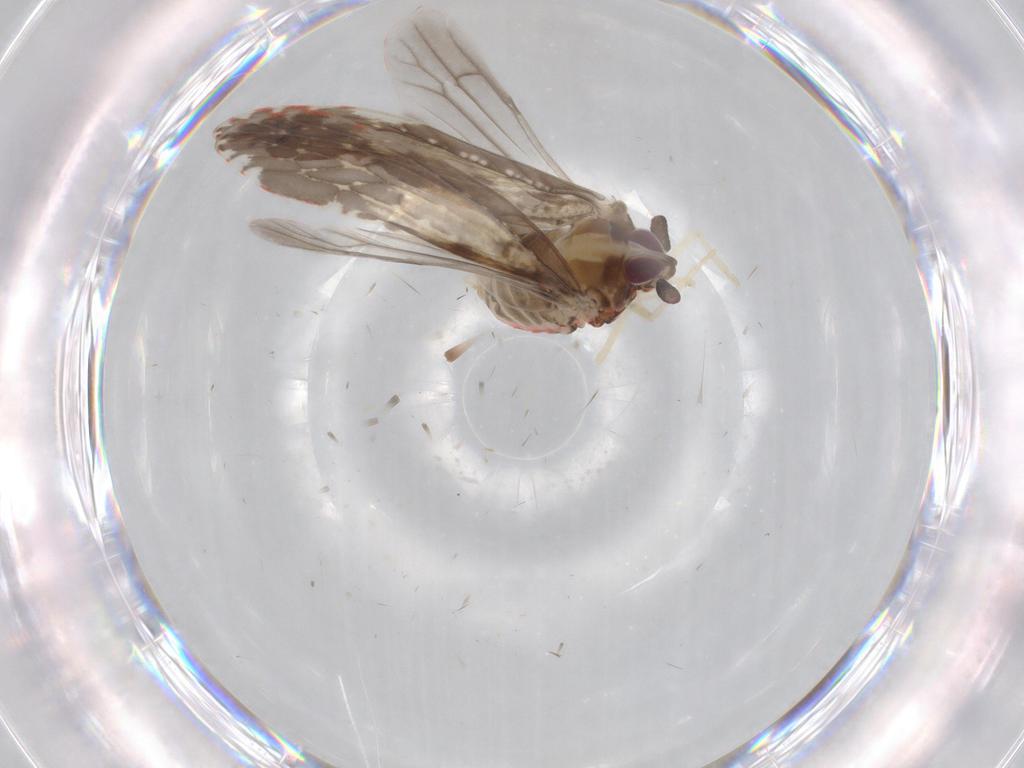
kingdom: Animalia
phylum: Arthropoda
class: Insecta
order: Hemiptera
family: Derbidae
